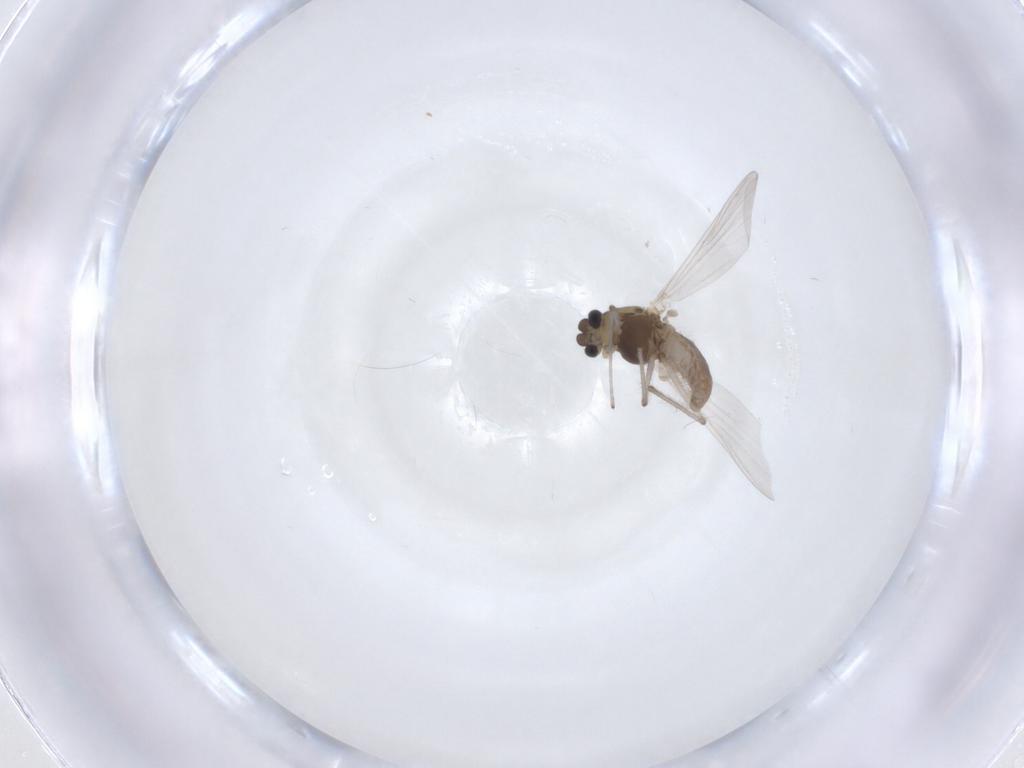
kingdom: Animalia
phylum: Arthropoda
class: Insecta
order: Diptera
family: Chironomidae
